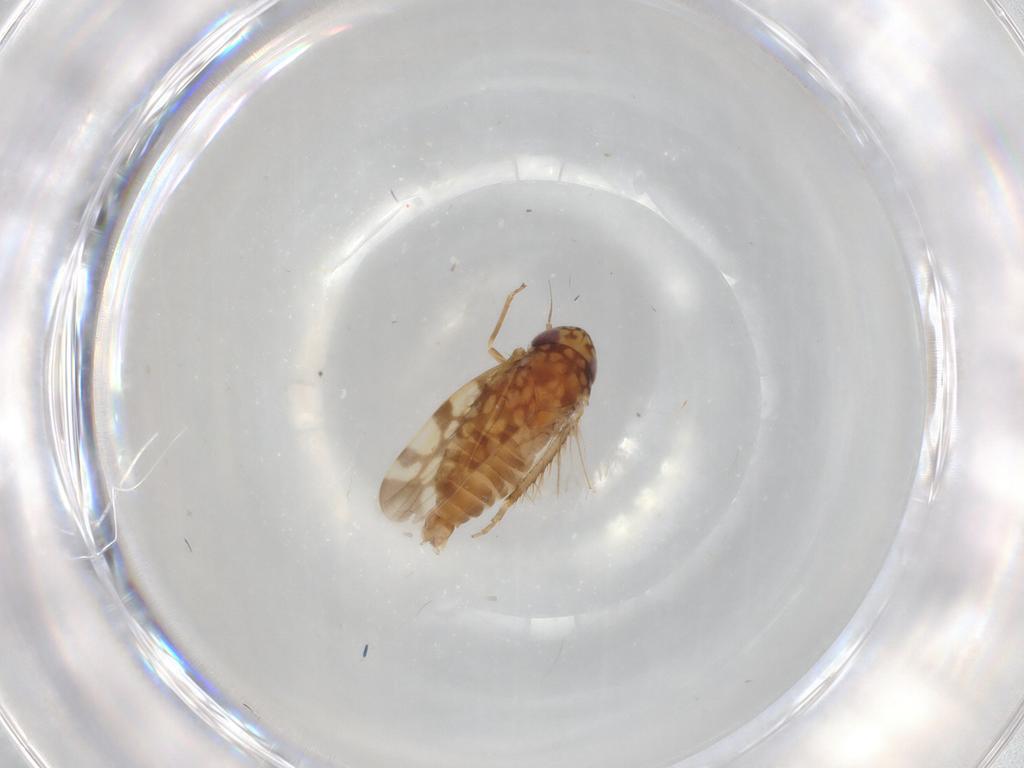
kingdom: Animalia
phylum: Arthropoda
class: Insecta
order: Hemiptera
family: Cicadellidae
